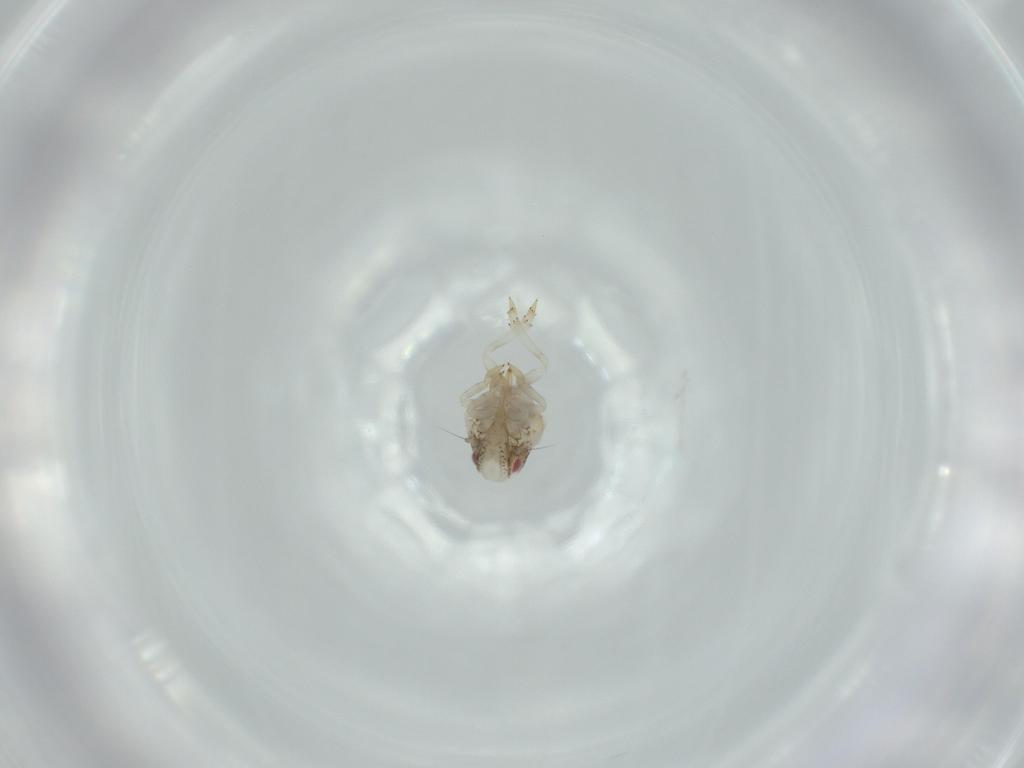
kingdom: Animalia
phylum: Arthropoda
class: Insecta
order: Hemiptera
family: Acanaloniidae
